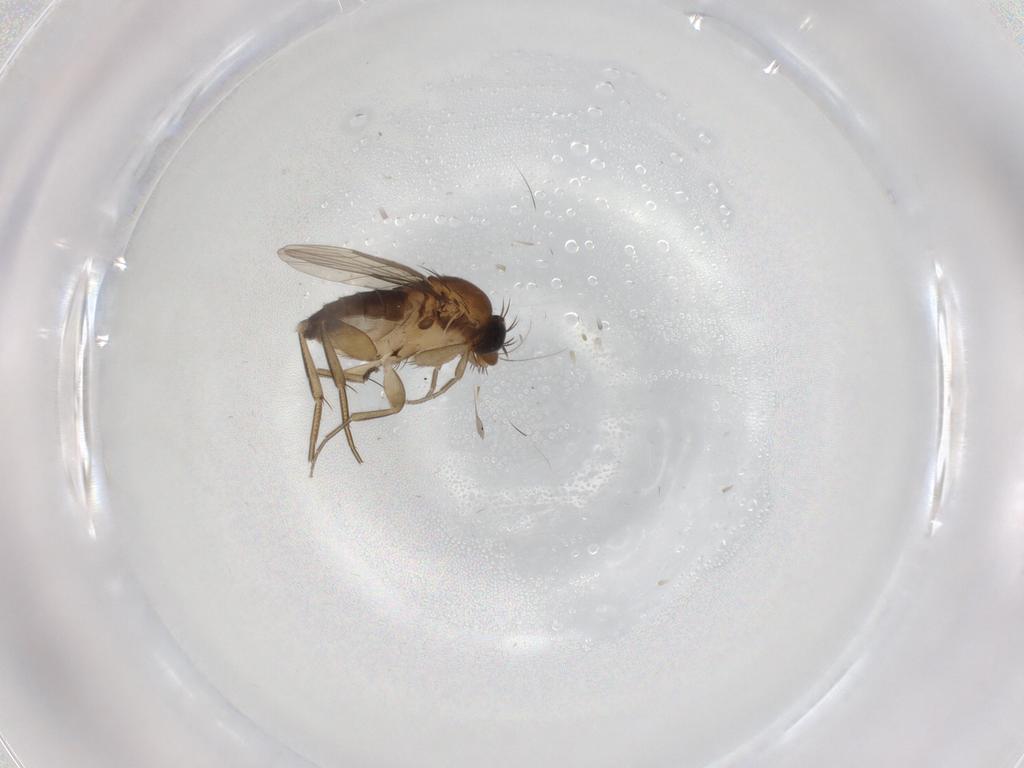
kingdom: Animalia
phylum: Arthropoda
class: Insecta
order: Diptera
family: Phoridae
